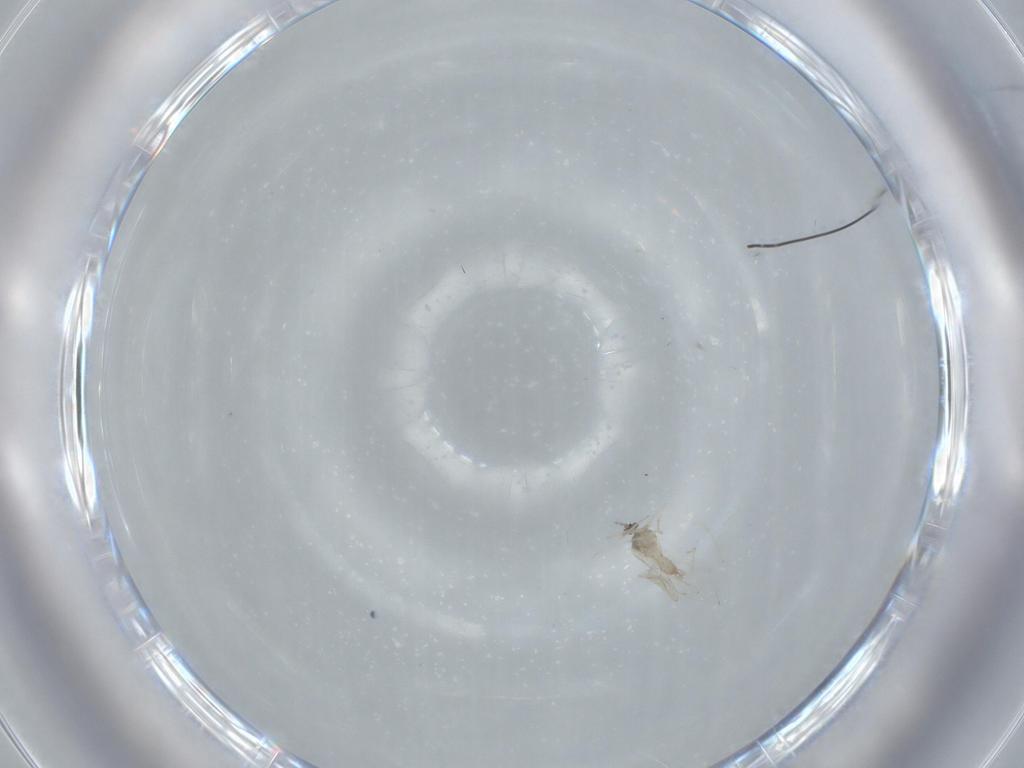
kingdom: Animalia
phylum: Arthropoda
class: Insecta
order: Diptera
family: Cecidomyiidae
